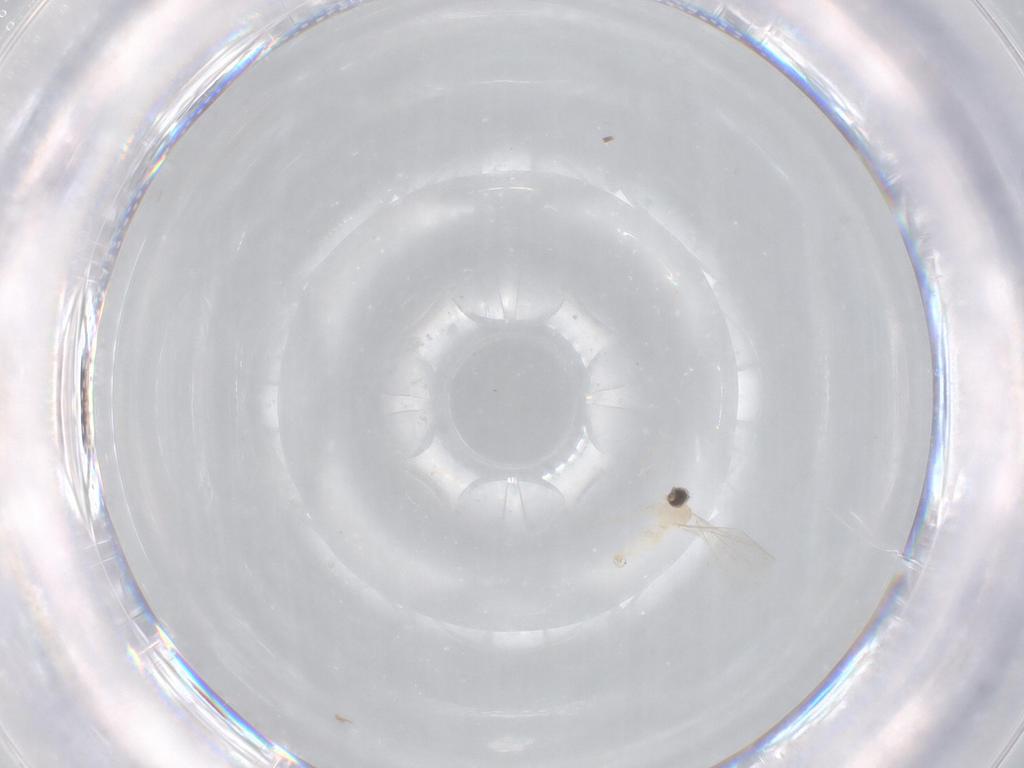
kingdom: Animalia
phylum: Arthropoda
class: Insecta
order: Diptera
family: Cecidomyiidae
